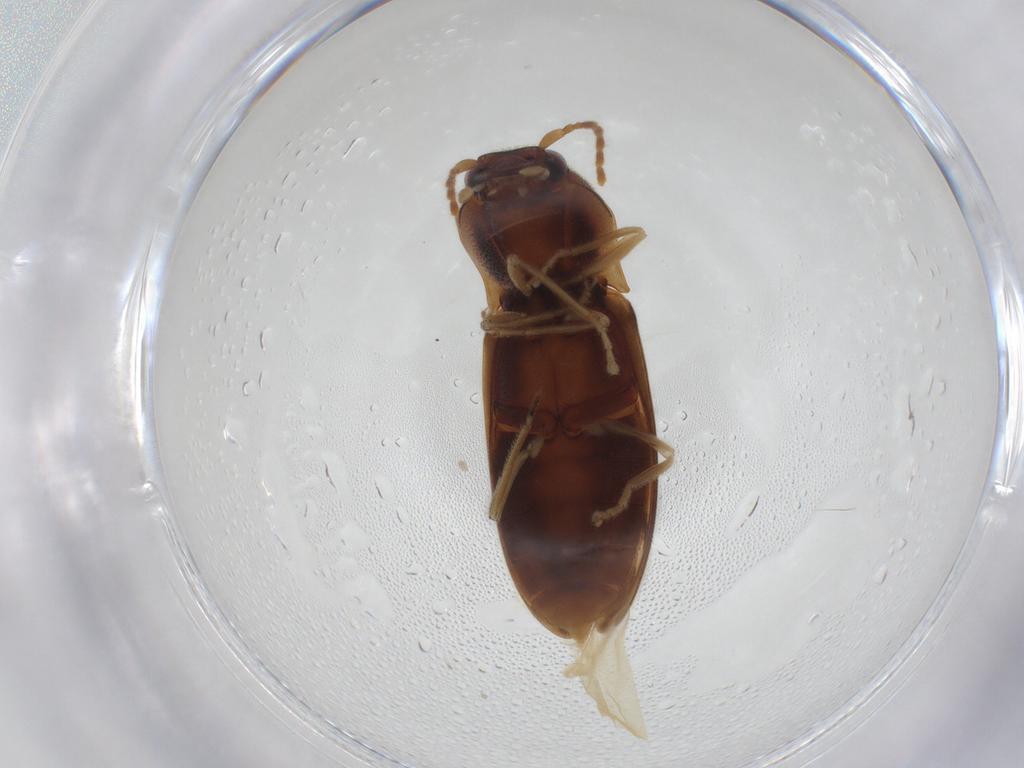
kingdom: Animalia
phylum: Arthropoda
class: Insecta
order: Coleoptera
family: Elateridae
